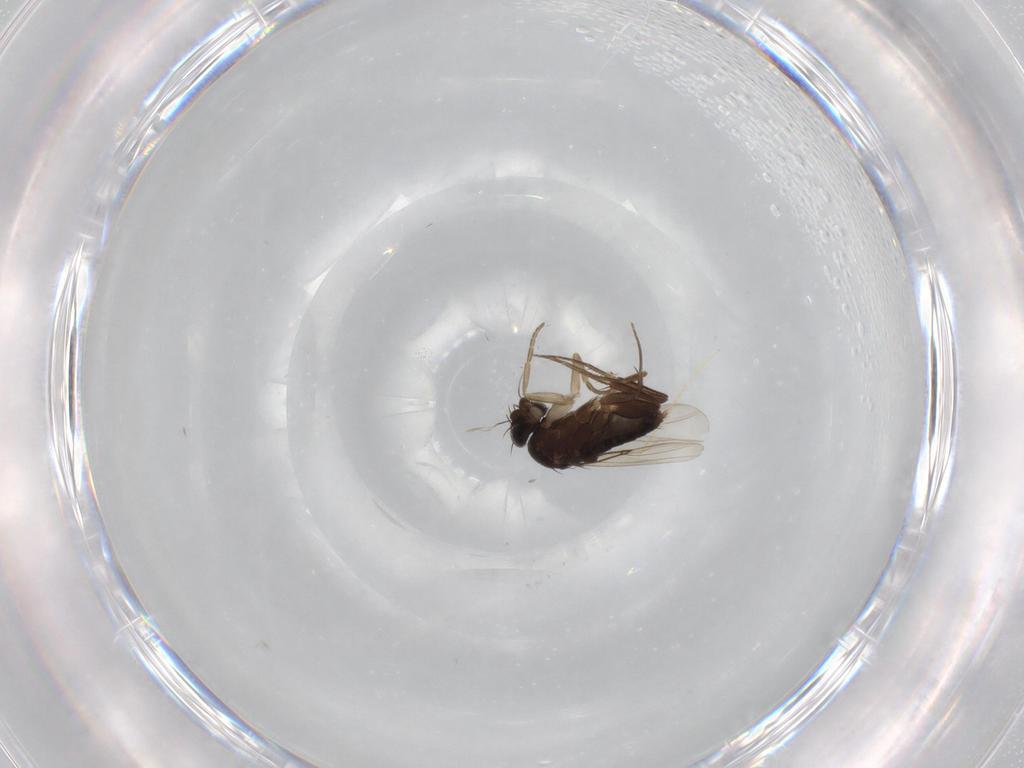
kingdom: Animalia
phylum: Arthropoda
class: Insecta
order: Diptera
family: Phoridae
